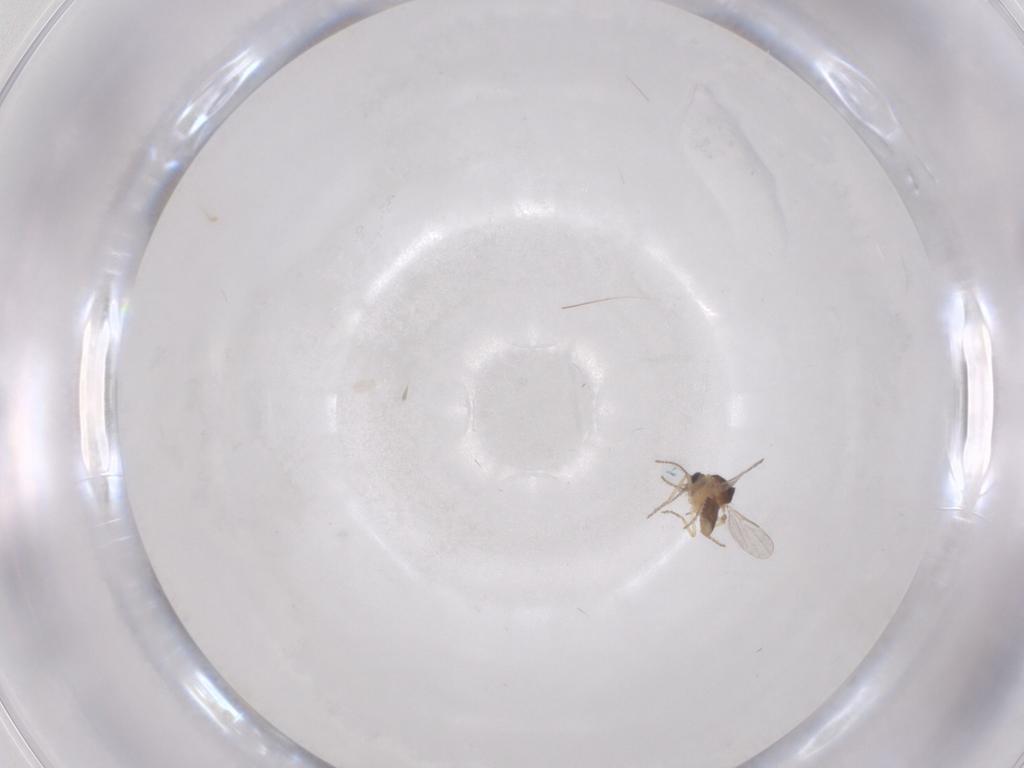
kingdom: Animalia
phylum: Arthropoda
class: Insecta
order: Diptera
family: Ceratopogonidae
